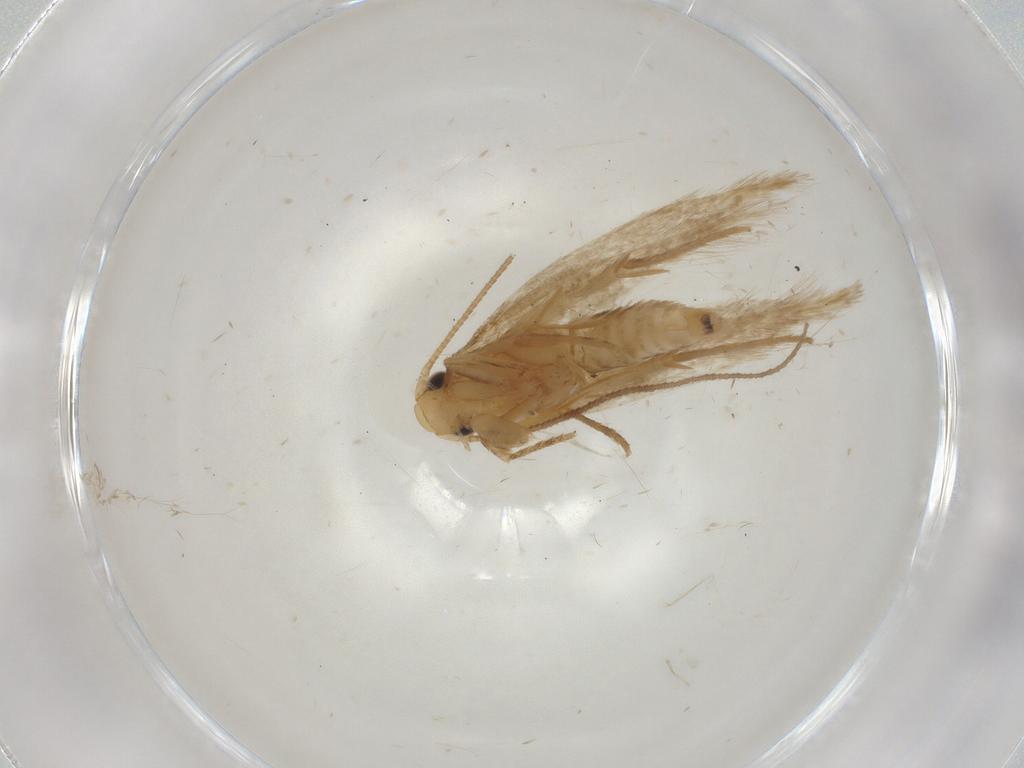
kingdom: Animalia
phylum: Arthropoda
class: Insecta
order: Lepidoptera
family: Tineidae
